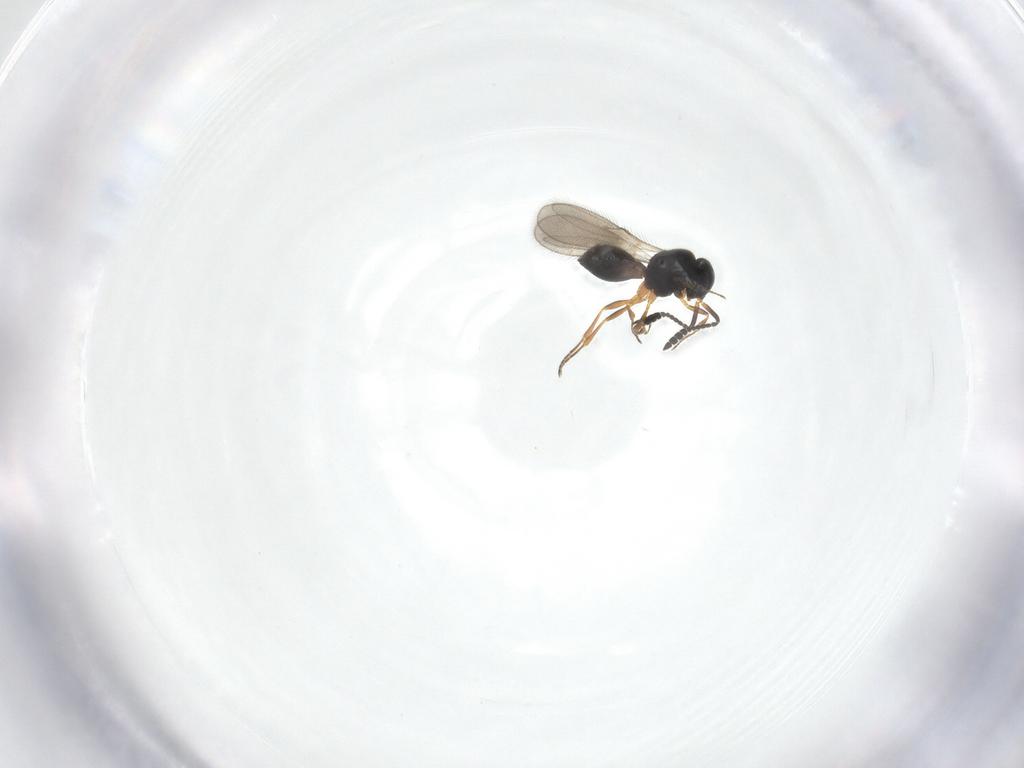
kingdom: Animalia
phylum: Arthropoda
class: Insecta
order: Hymenoptera
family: Scelionidae
